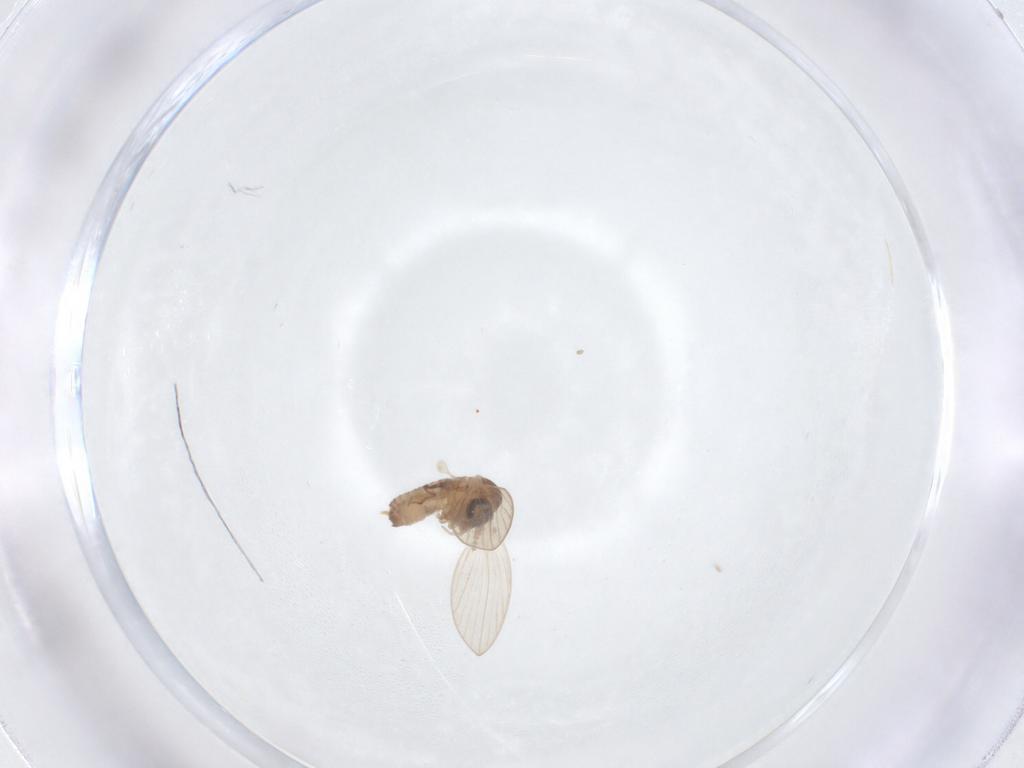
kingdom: Animalia
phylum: Arthropoda
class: Insecta
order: Diptera
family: Psychodidae
